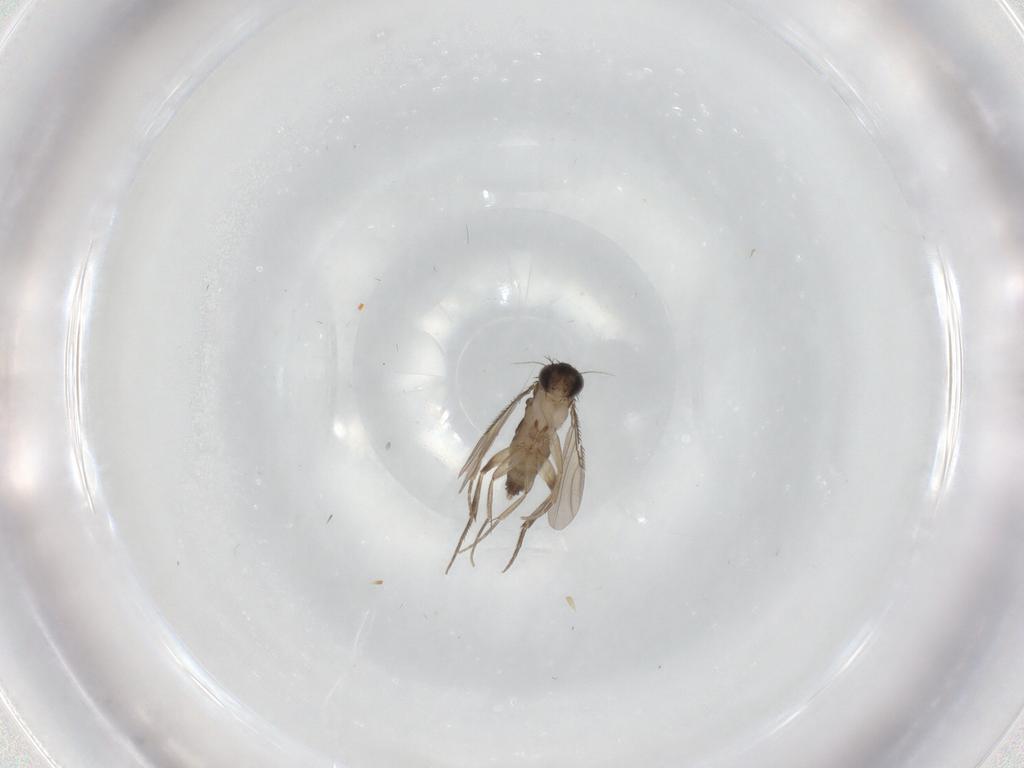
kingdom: Animalia
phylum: Arthropoda
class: Insecta
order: Diptera
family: Phoridae
